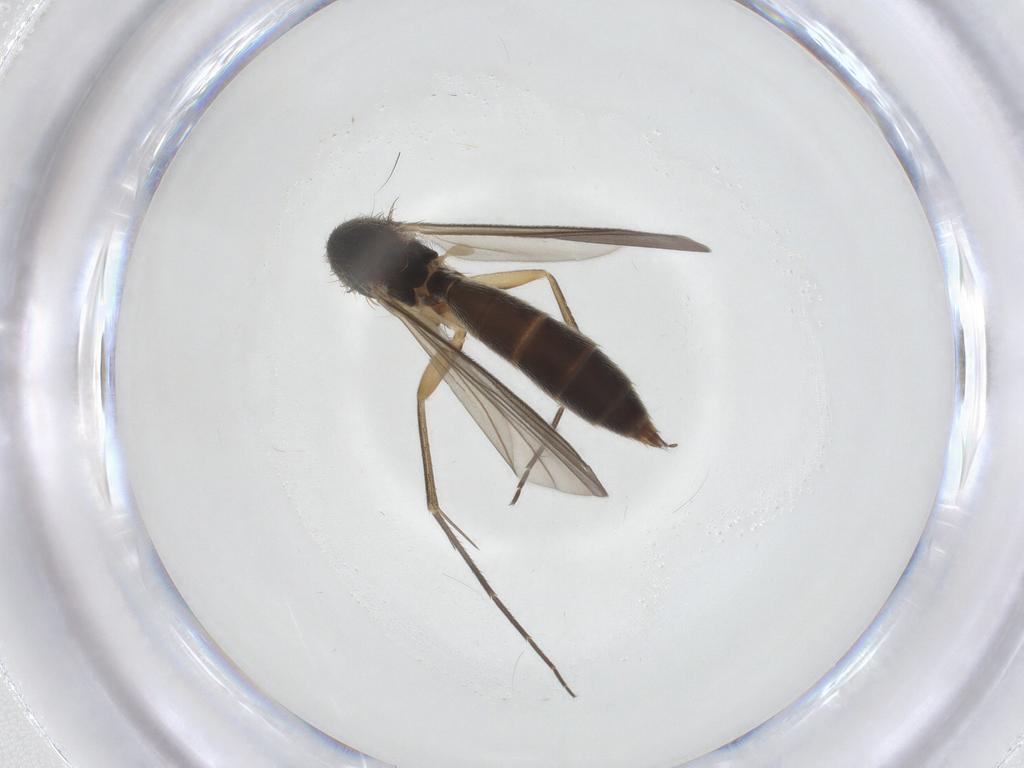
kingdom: Animalia
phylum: Arthropoda
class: Insecta
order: Diptera
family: Mycetophilidae
